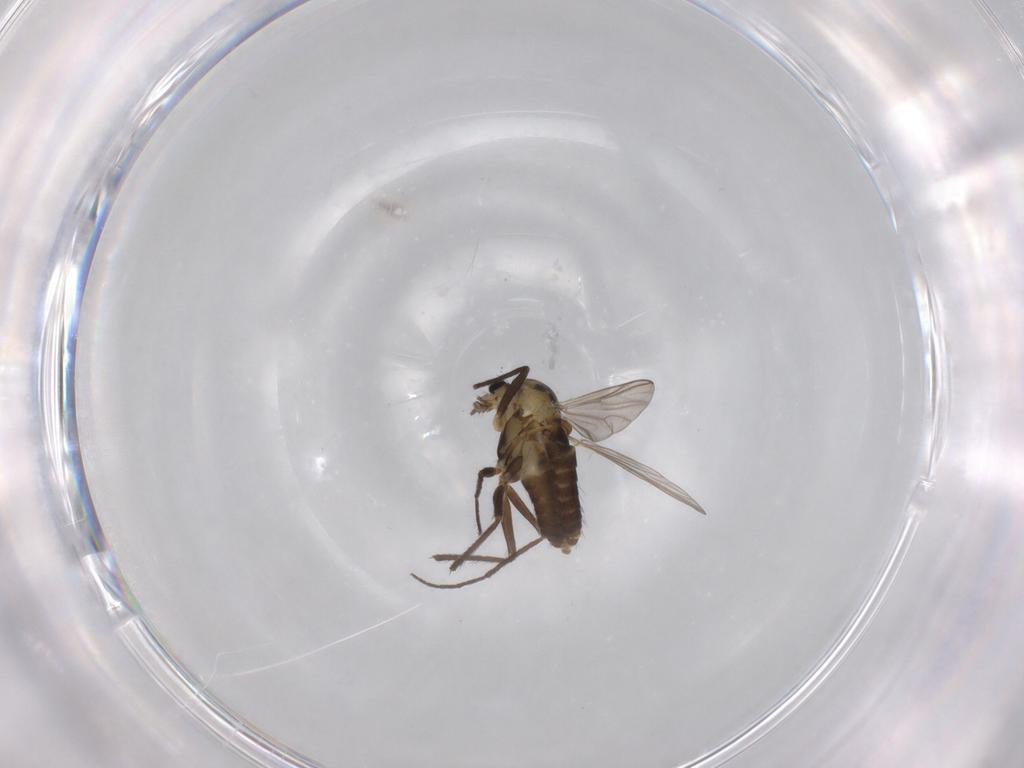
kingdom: Animalia
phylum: Arthropoda
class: Insecta
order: Diptera
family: Chironomidae
